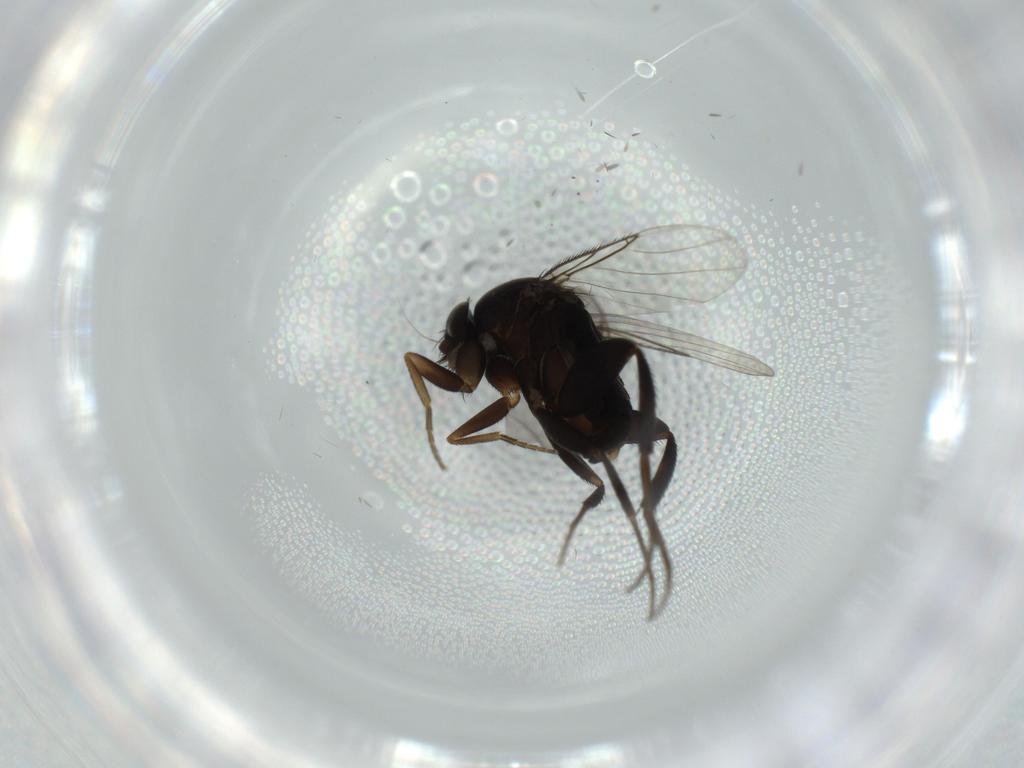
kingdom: Animalia
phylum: Arthropoda
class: Insecta
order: Diptera
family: Phoridae
